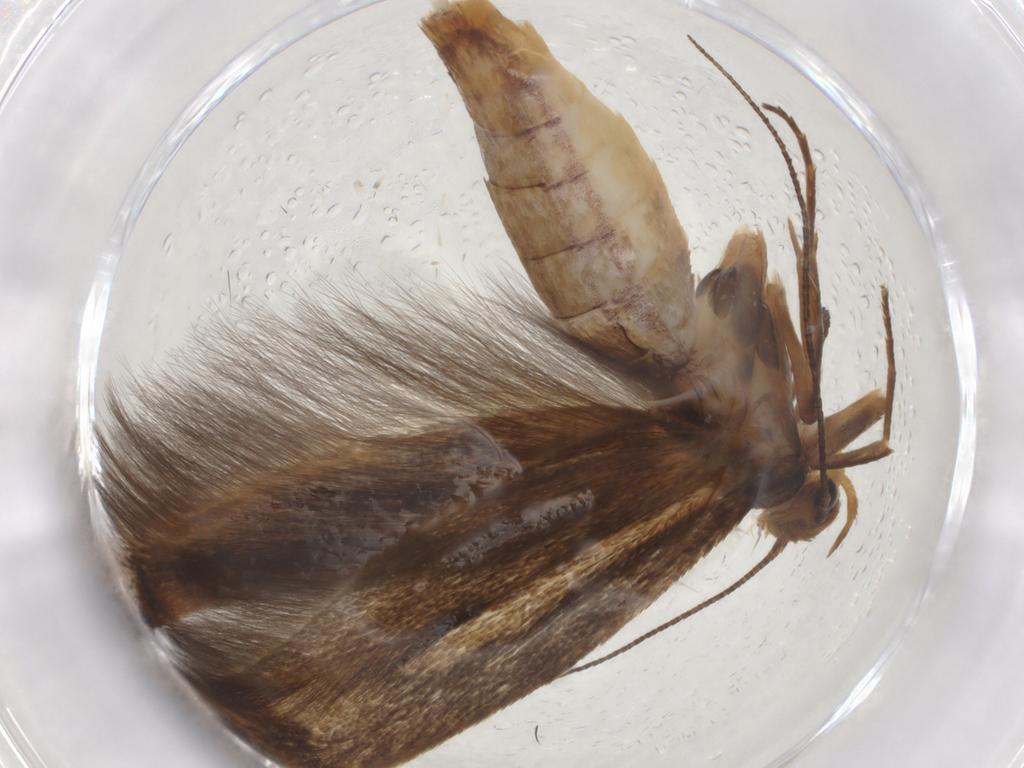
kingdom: Animalia
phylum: Arthropoda
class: Insecta
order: Lepidoptera
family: Scythrididae
